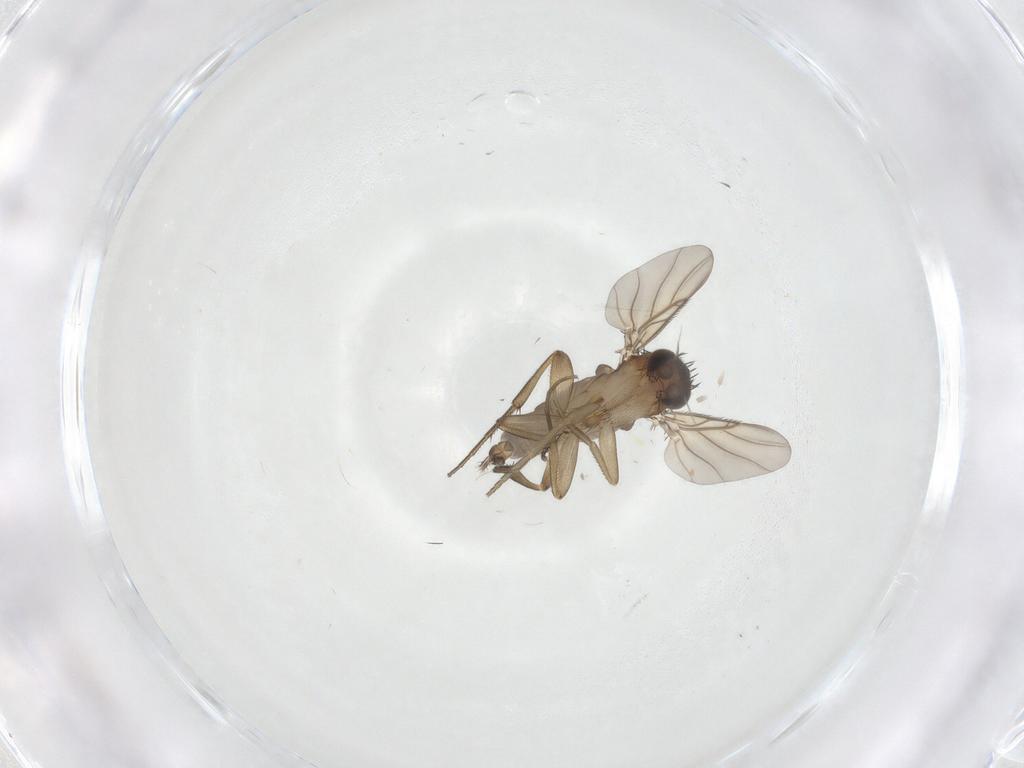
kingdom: Animalia
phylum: Arthropoda
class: Insecta
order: Diptera
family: Phoridae
